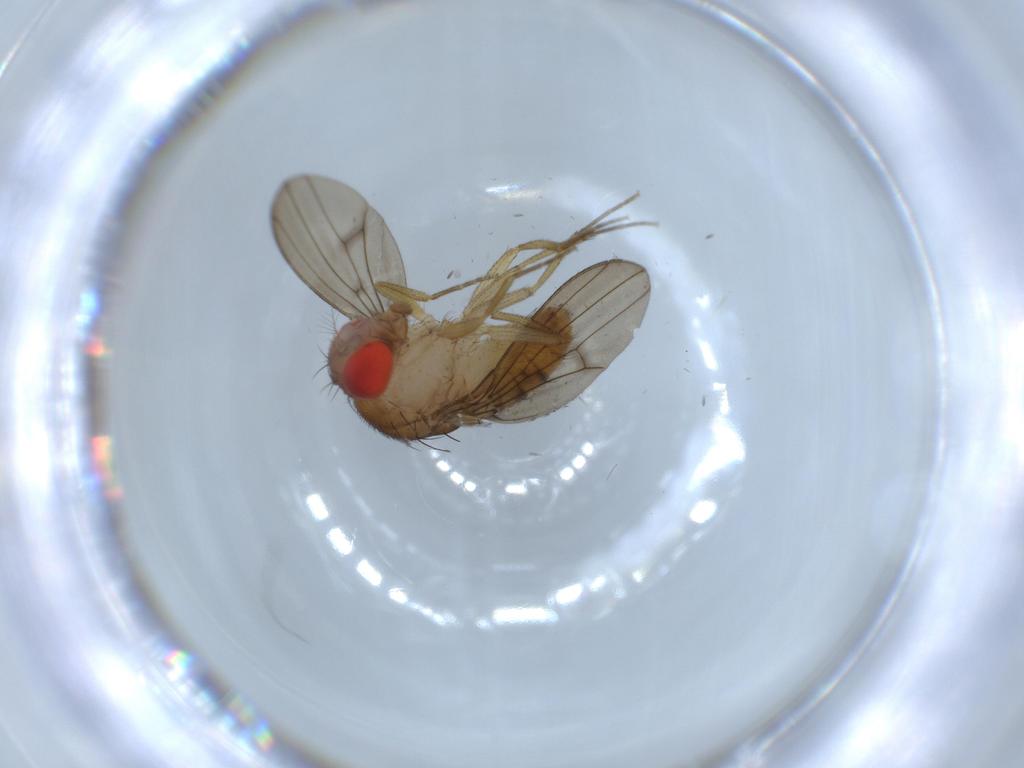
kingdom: Animalia
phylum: Arthropoda
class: Insecta
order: Diptera
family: Drosophilidae
